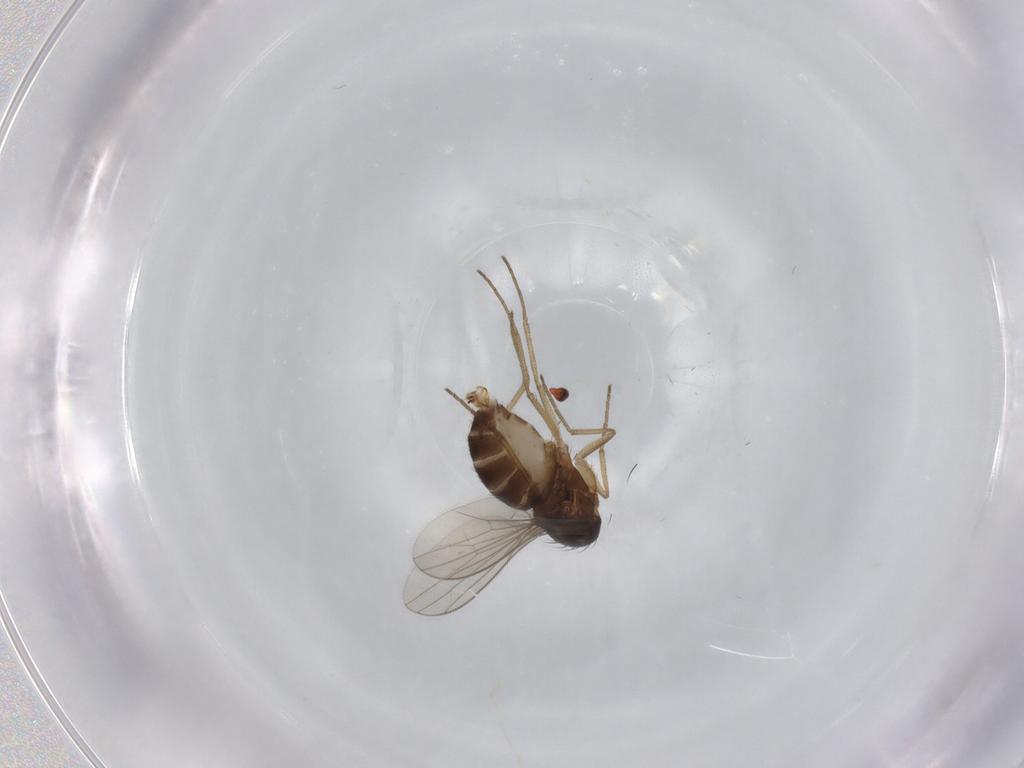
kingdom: Animalia
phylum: Arthropoda
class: Insecta
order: Diptera
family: Dolichopodidae
